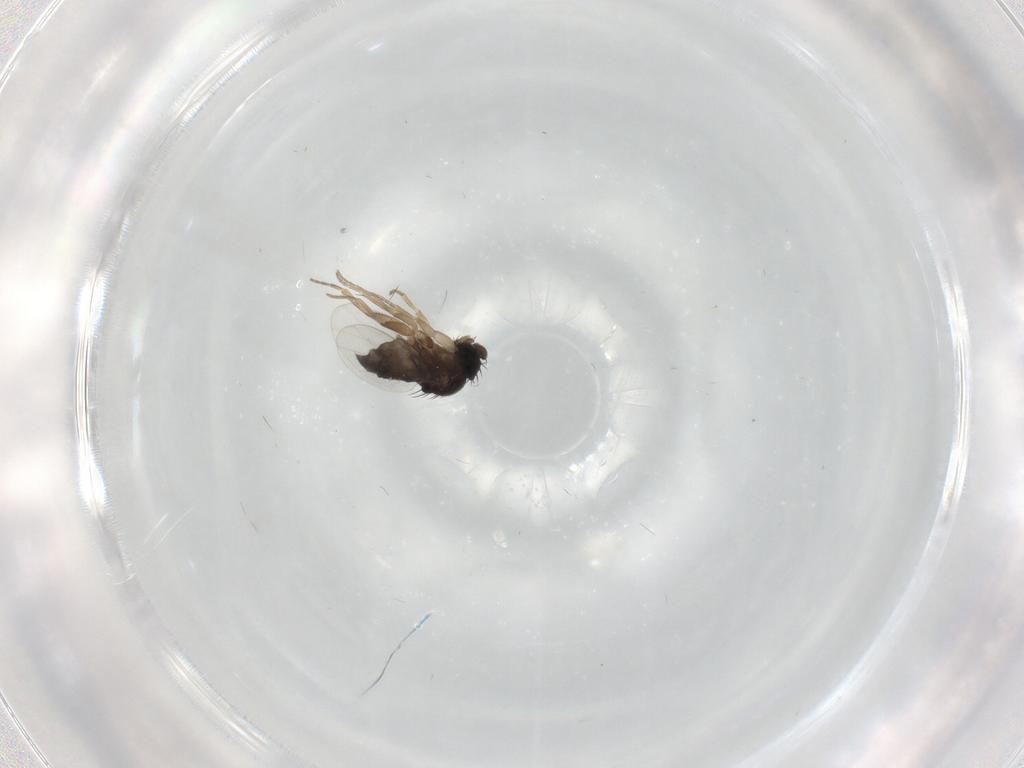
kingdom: Animalia
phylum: Arthropoda
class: Insecta
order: Diptera
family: Phoridae
